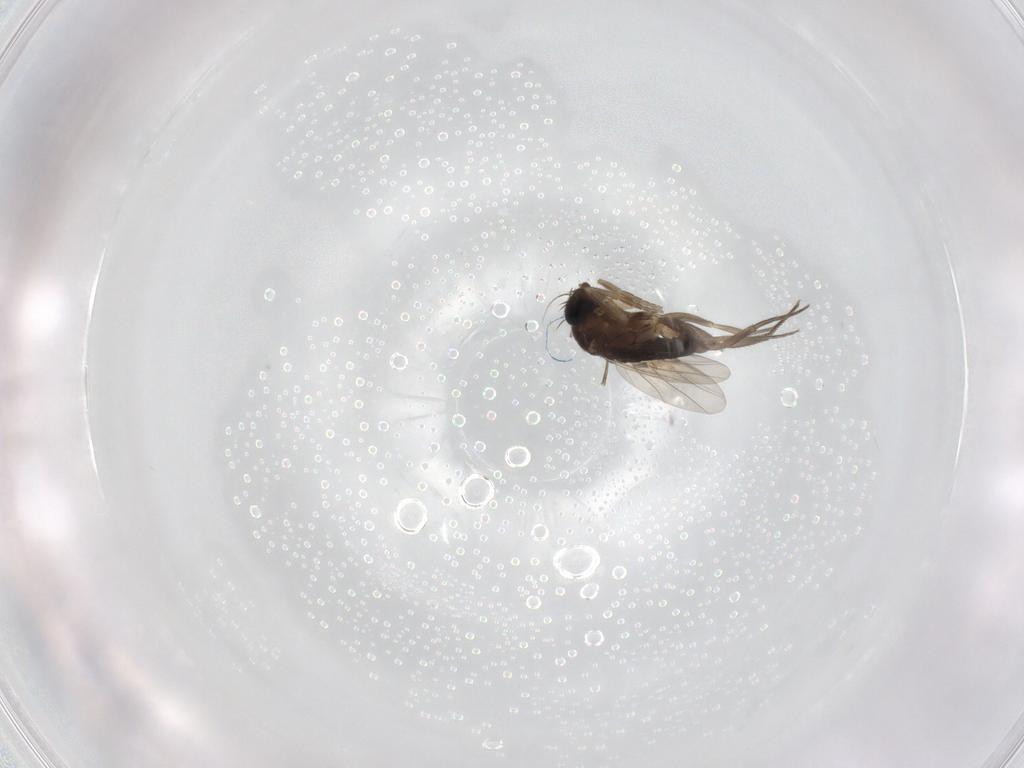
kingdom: Animalia
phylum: Arthropoda
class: Insecta
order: Diptera
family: Phoridae
